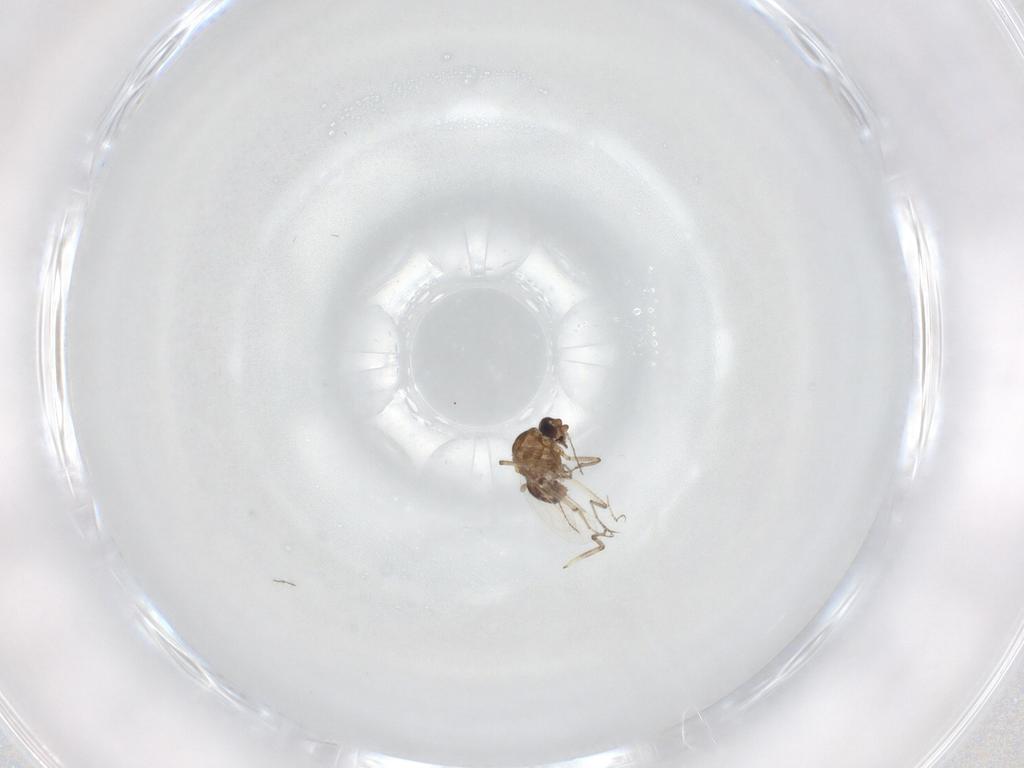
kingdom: Animalia
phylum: Arthropoda
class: Insecta
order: Diptera
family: Ceratopogonidae
